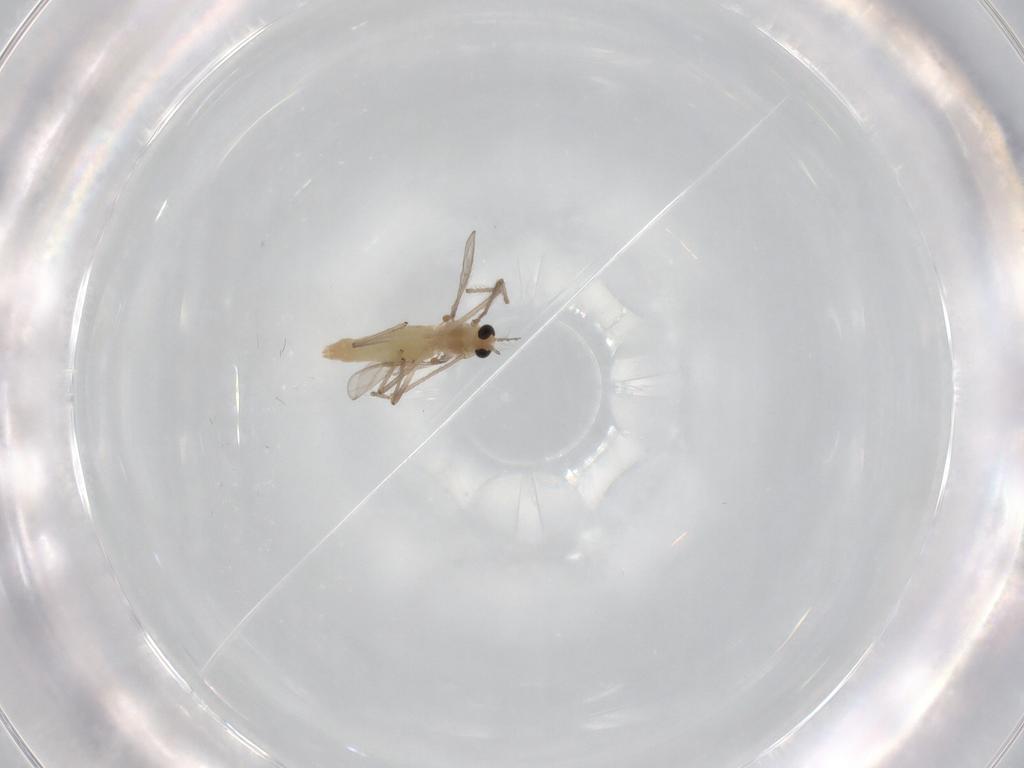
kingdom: Animalia
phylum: Arthropoda
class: Insecta
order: Diptera
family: Chironomidae
